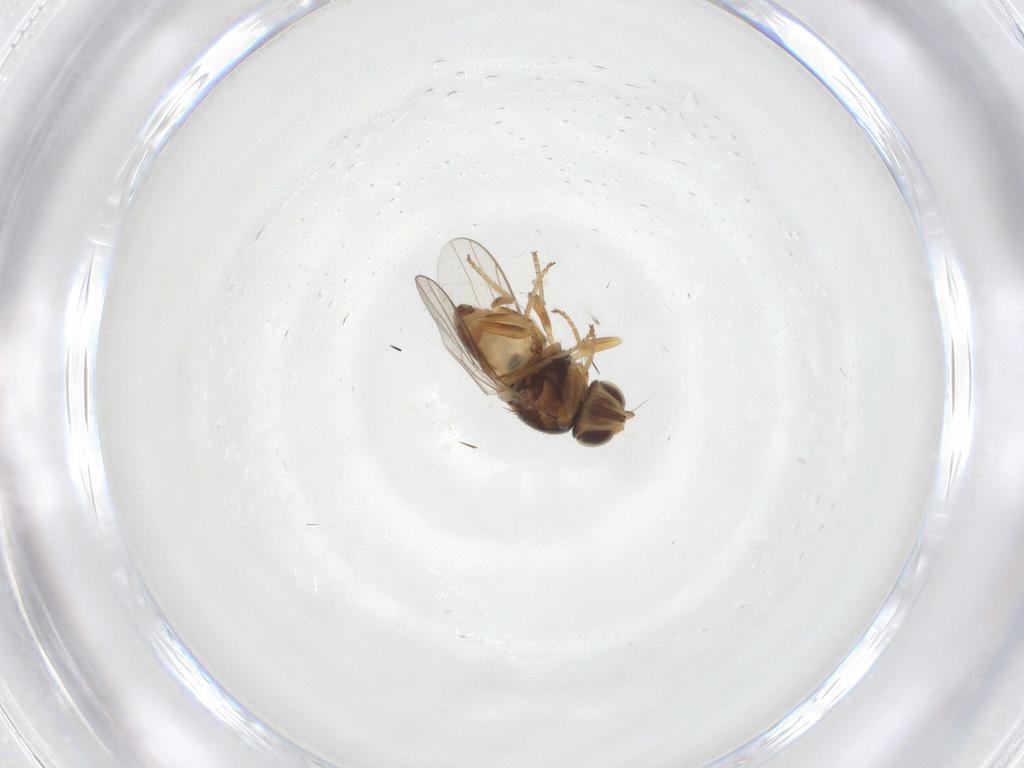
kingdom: Animalia
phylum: Arthropoda
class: Insecta
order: Diptera
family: Chloropidae
